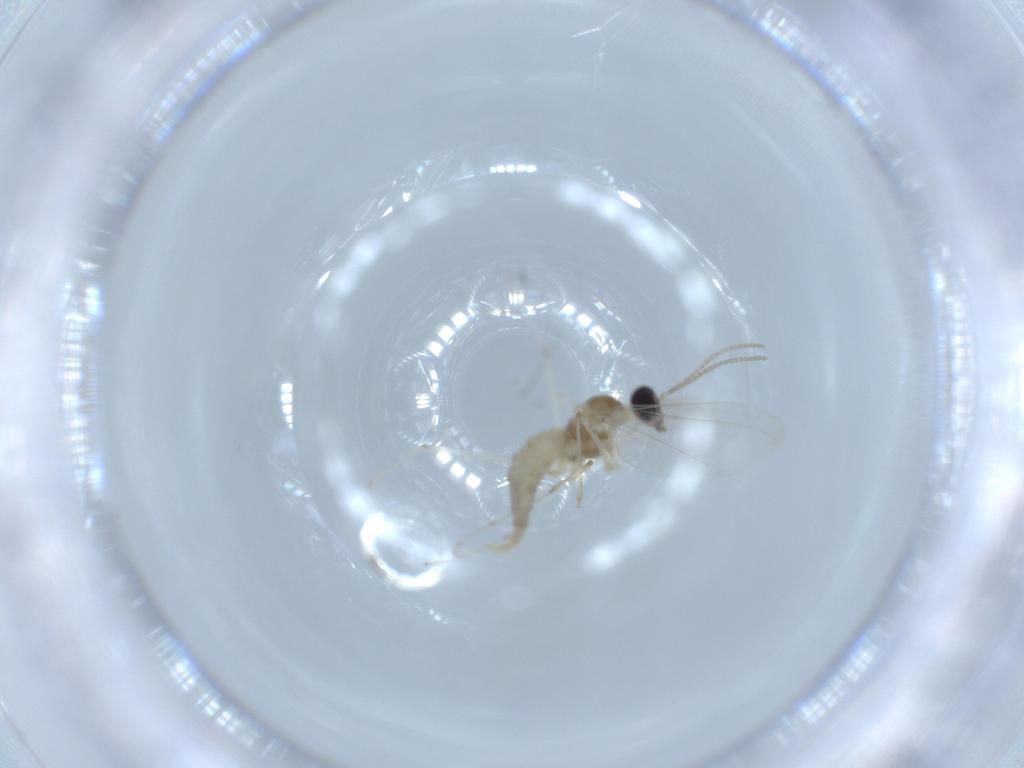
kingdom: Animalia
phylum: Arthropoda
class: Insecta
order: Diptera
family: Cecidomyiidae
